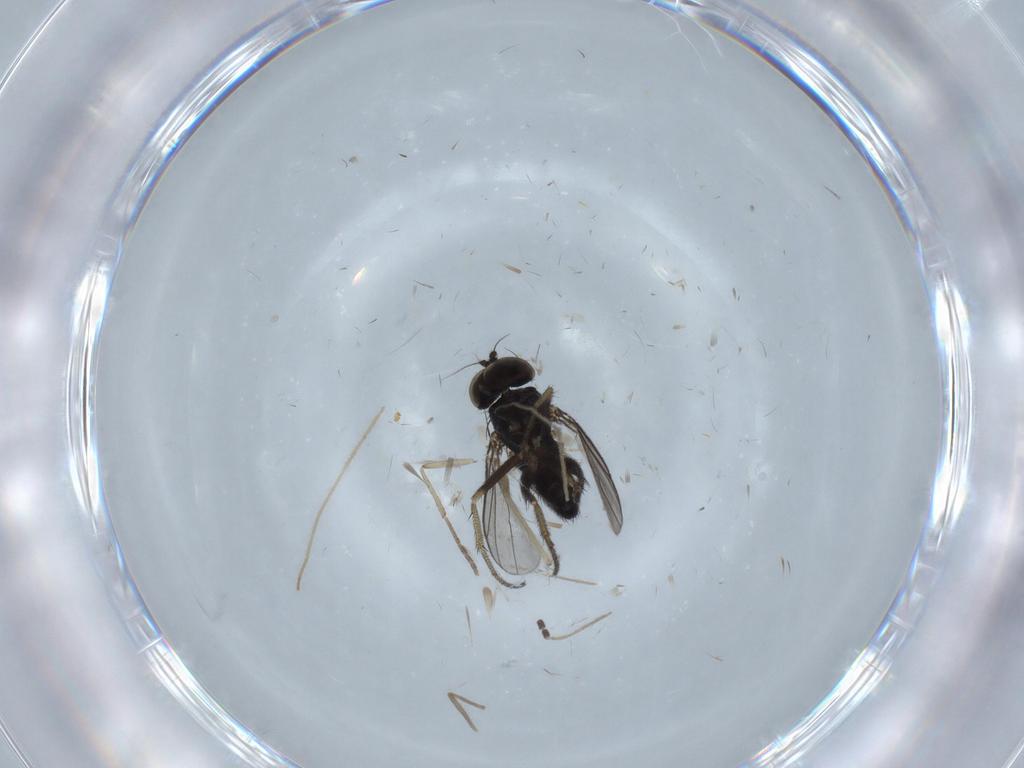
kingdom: Animalia
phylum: Arthropoda
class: Insecta
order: Diptera
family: Chironomidae
